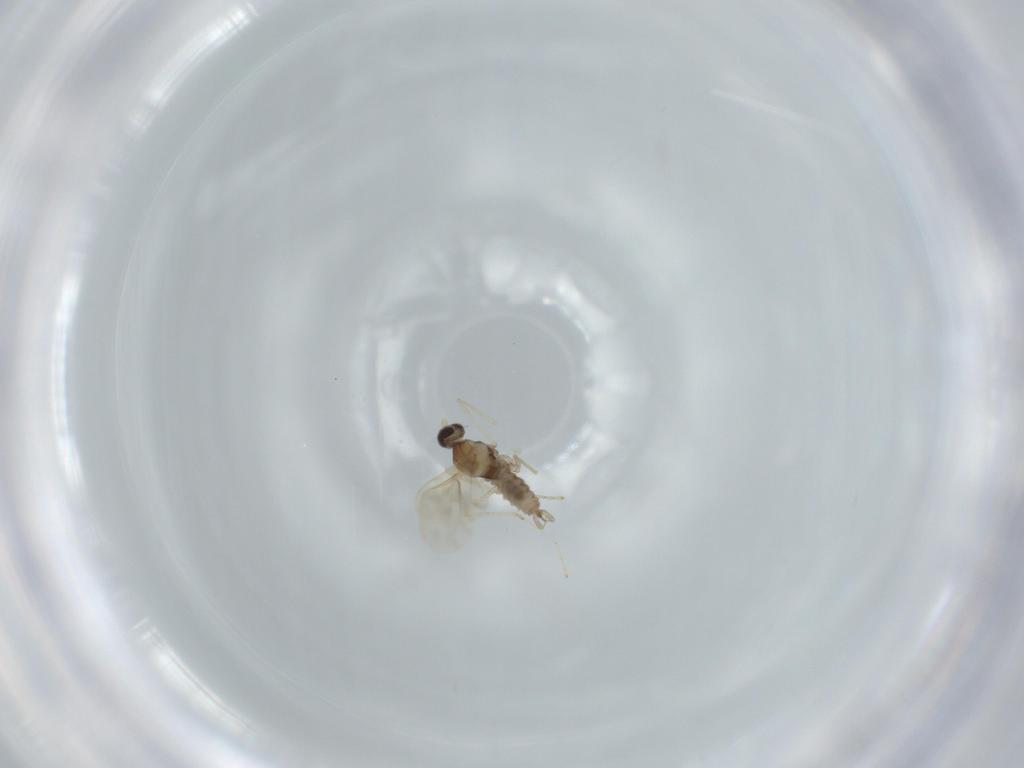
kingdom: Animalia
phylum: Arthropoda
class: Insecta
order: Diptera
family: Cecidomyiidae
